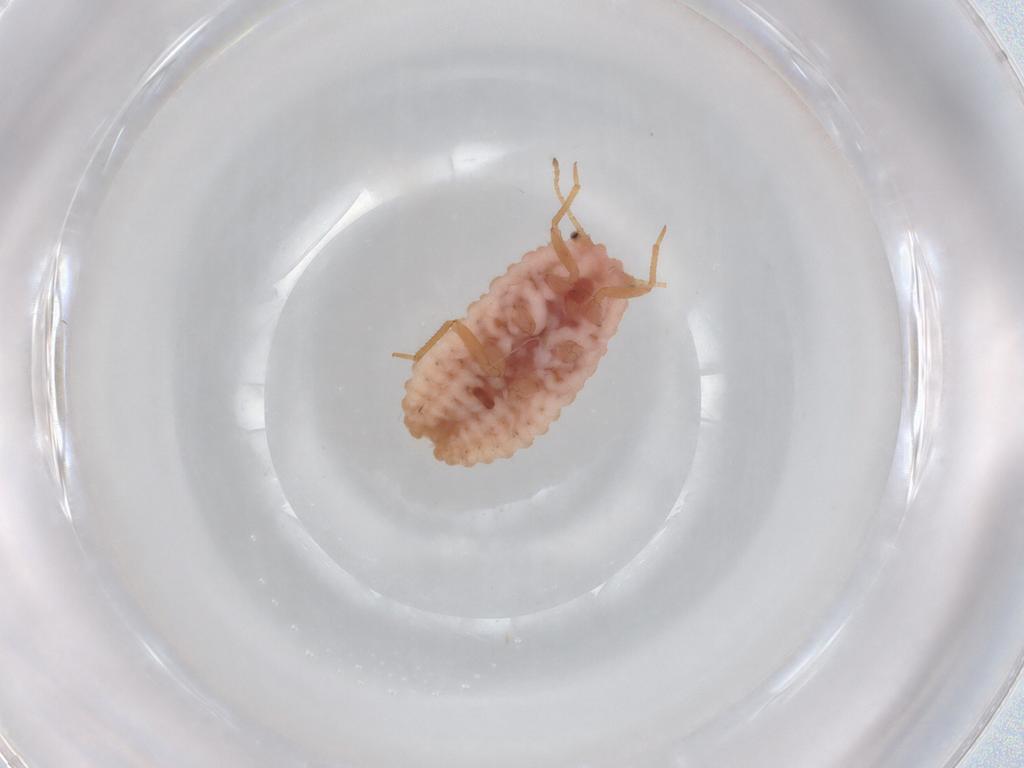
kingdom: Animalia
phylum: Arthropoda
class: Insecta
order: Hemiptera
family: Coccoidea_incertae_sedis
